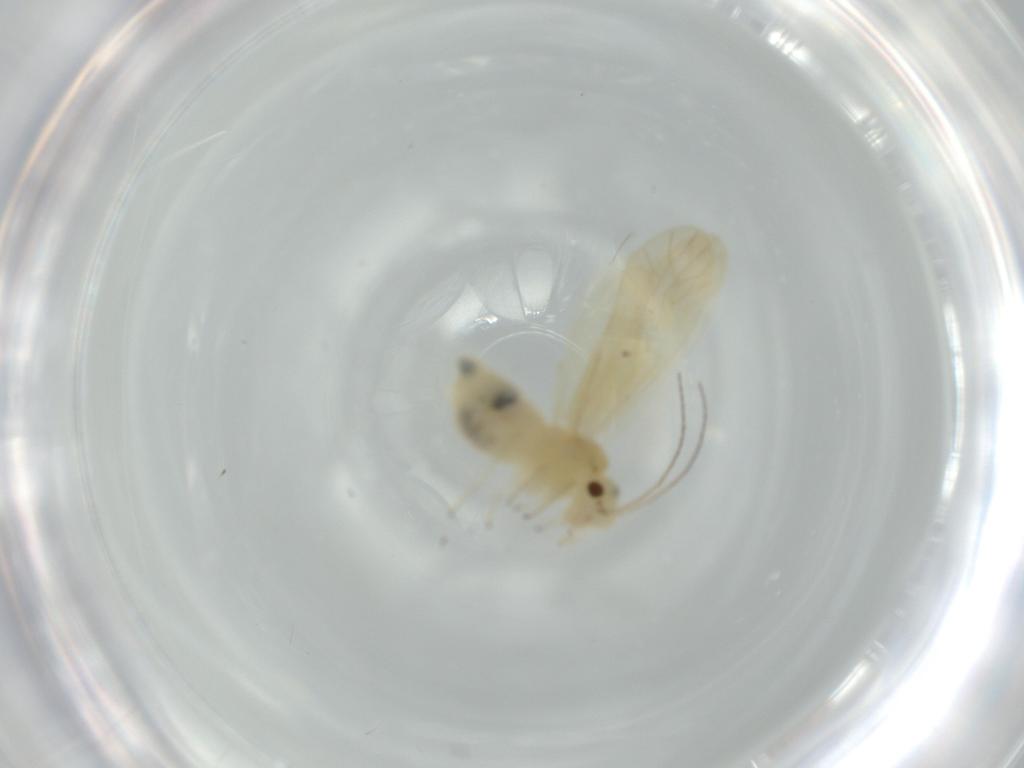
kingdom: Animalia
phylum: Arthropoda
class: Insecta
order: Psocodea
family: Caeciliusidae
